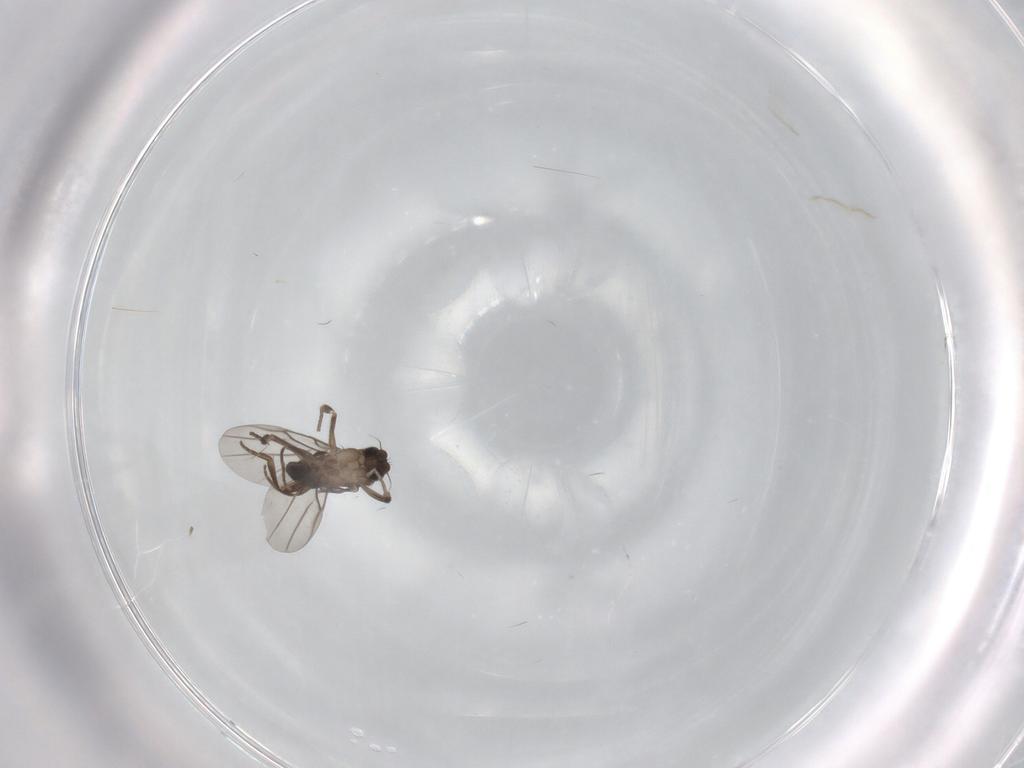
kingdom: Animalia
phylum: Arthropoda
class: Insecta
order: Diptera
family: Phoridae
